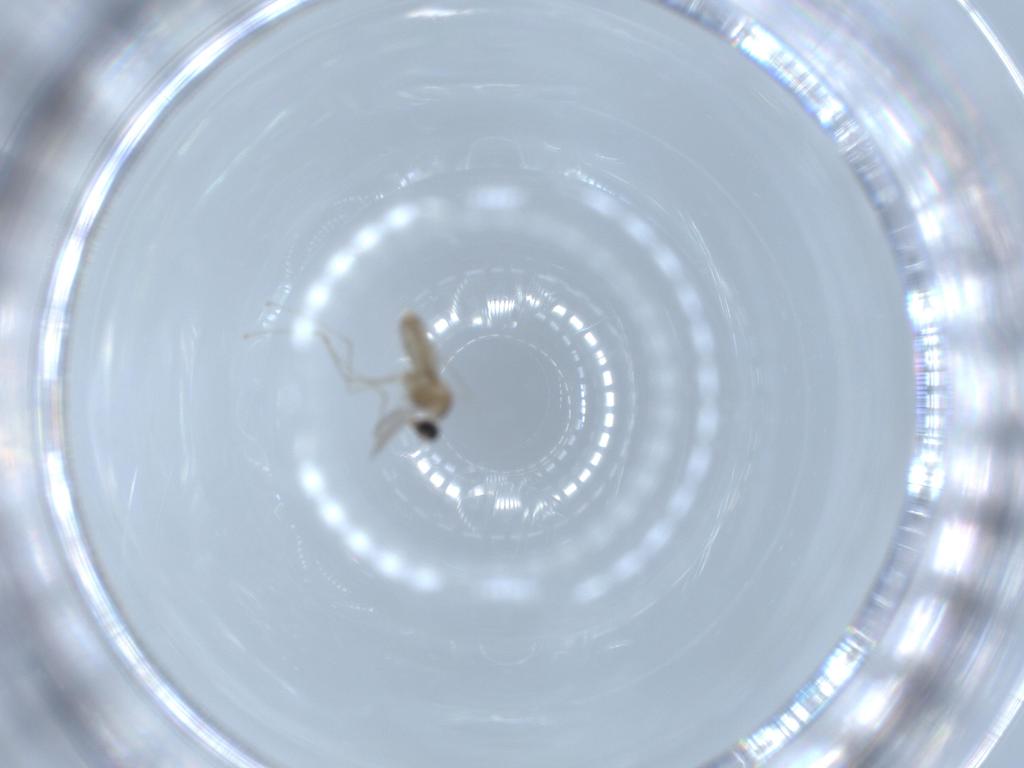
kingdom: Animalia
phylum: Arthropoda
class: Insecta
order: Diptera
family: Cecidomyiidae
